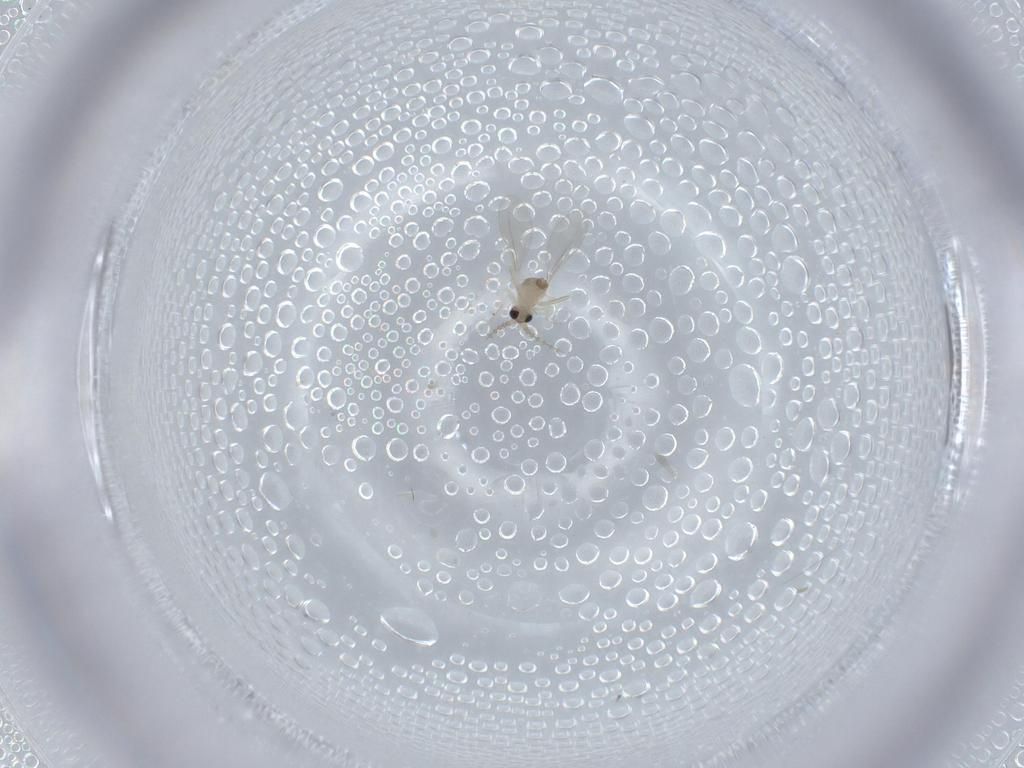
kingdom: Animalia
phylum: Arthropoda
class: Insecta
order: Diptera
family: Cecidomyiidae
